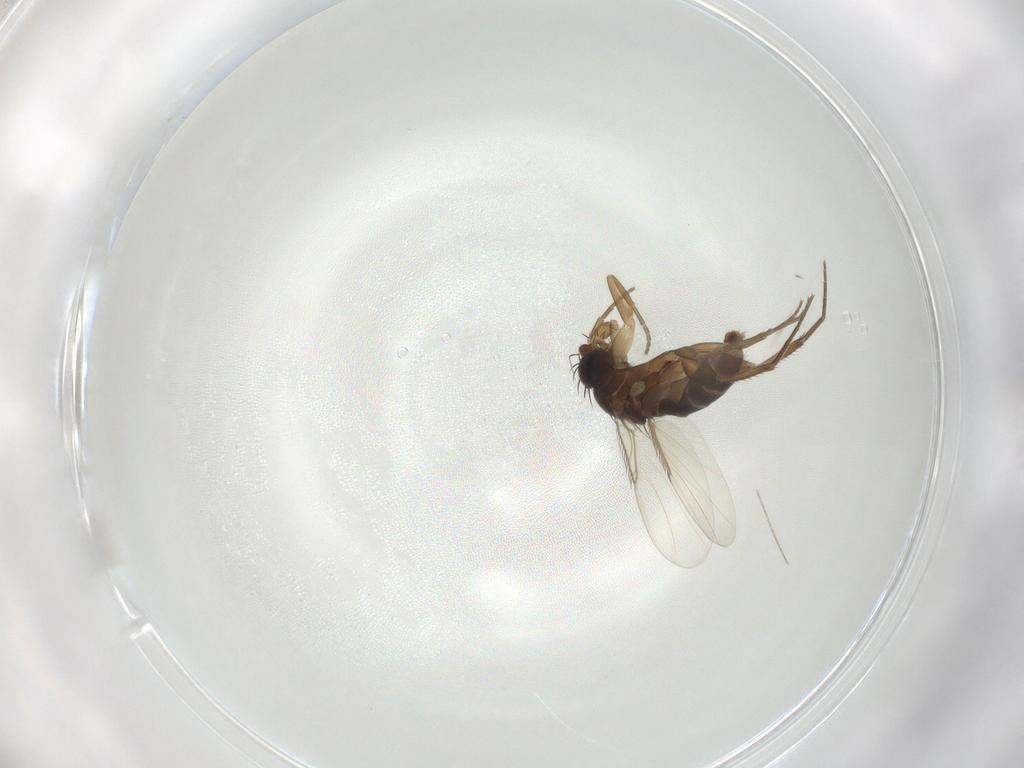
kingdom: Animalia
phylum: Arthropoda
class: Insecta
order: Diptera
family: Phoridae
